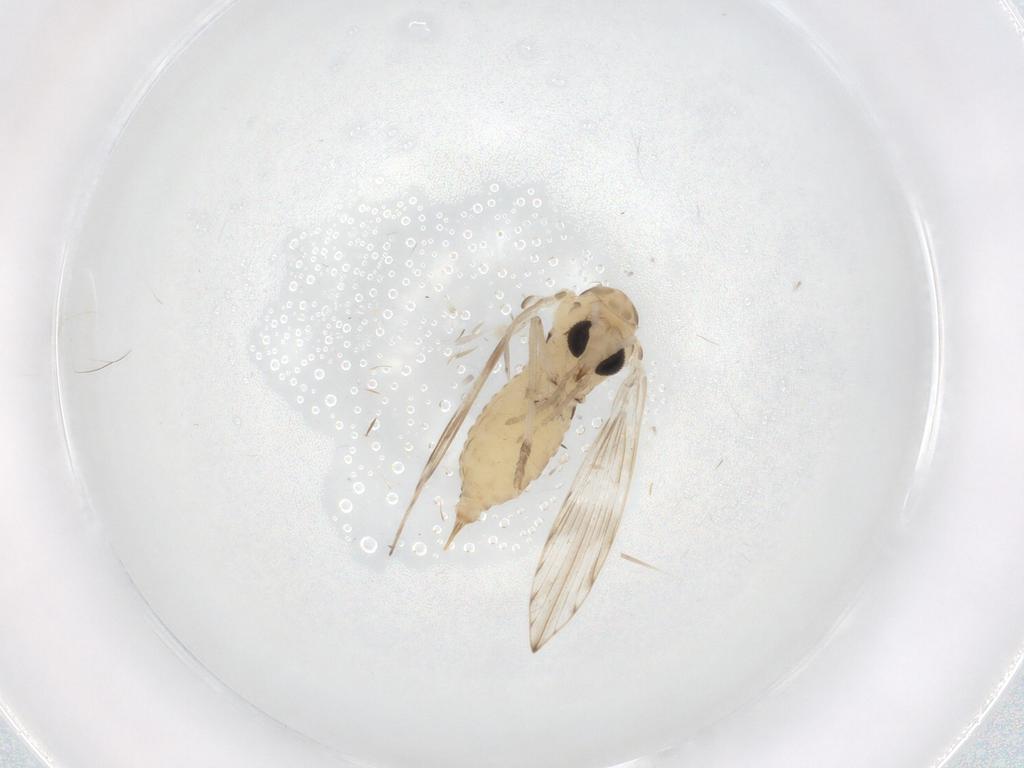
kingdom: Animalia
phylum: Arthropoda
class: Insecta
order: Diptera
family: Psychodidae
